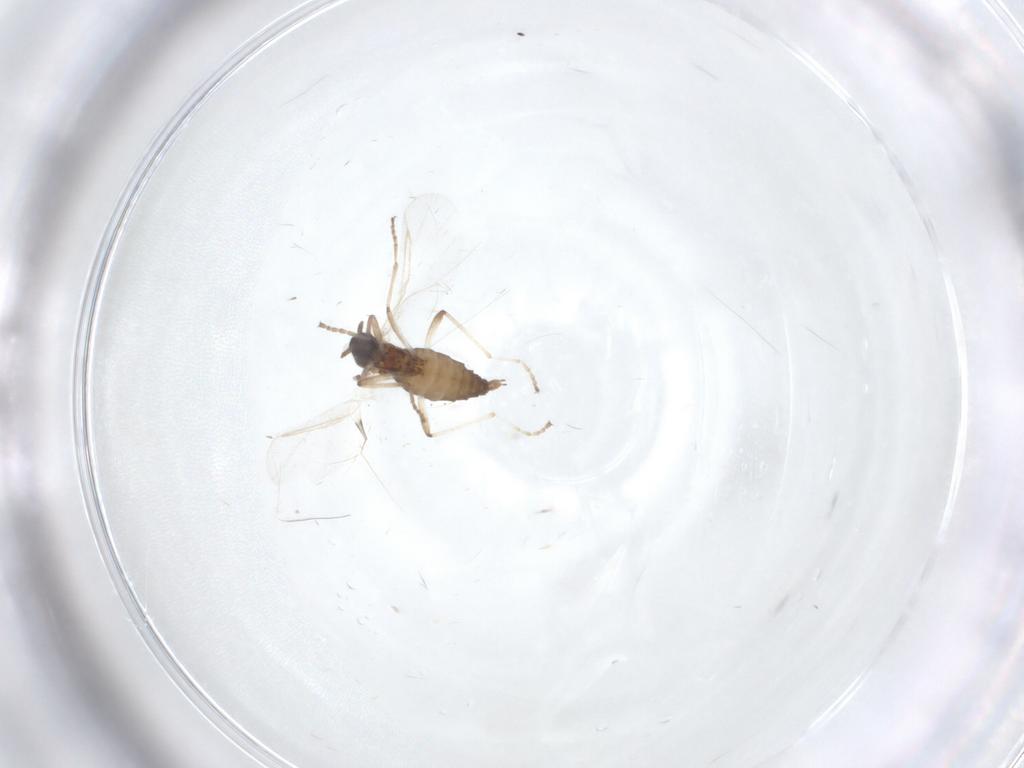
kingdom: Animalia
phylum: Arthropoda
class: Insecta
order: Diptera
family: Cecidomyiidae
